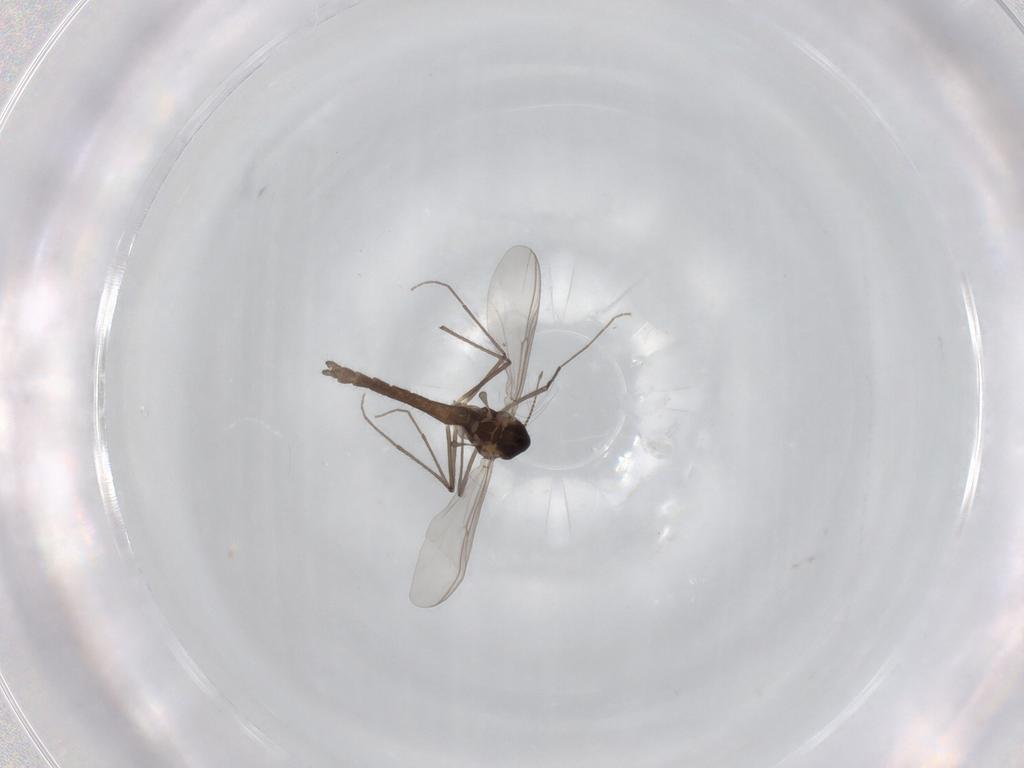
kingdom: Animalia
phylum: Arthropoda
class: Insecta
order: Diptera
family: Chironomidae
